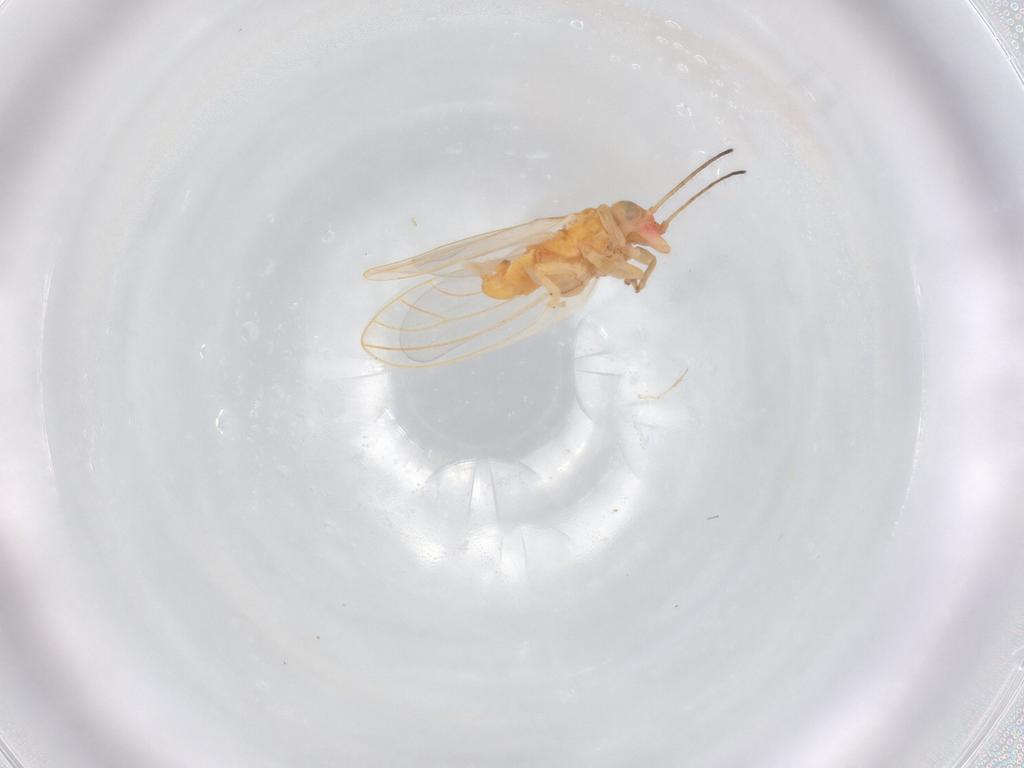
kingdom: Animalia
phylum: Arthropoda
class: Insecta
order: Hemiptera
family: Aphalaridae
